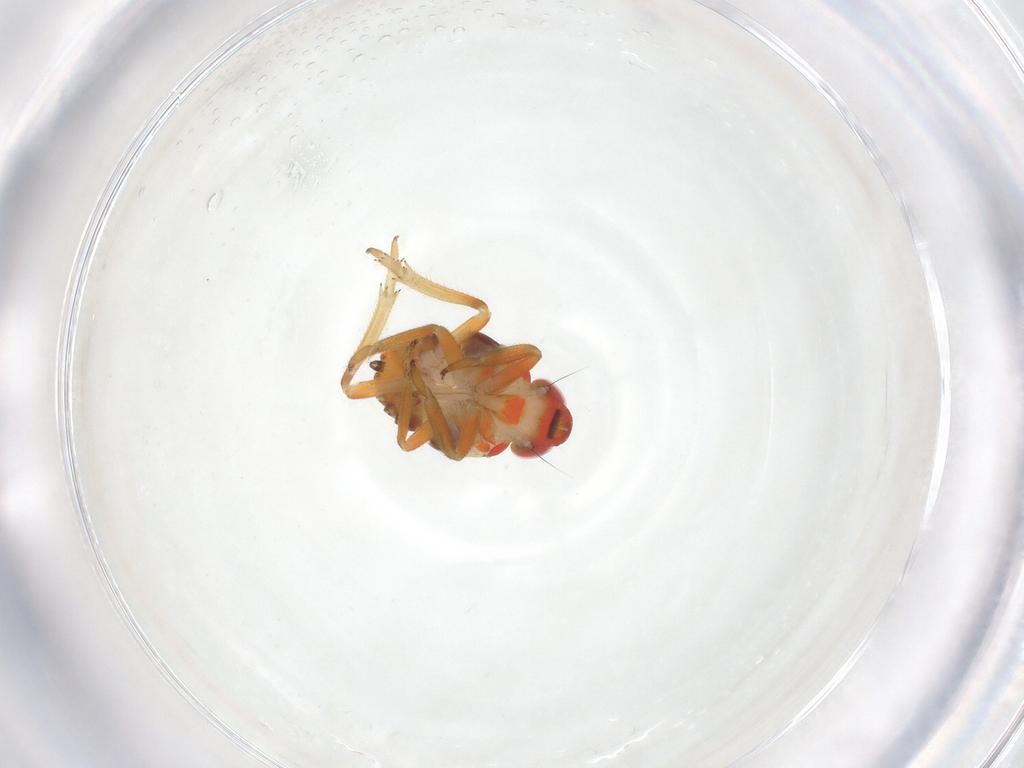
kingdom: Animalia
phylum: Arthropoda
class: Insecta
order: Hemiptera
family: Issidae
